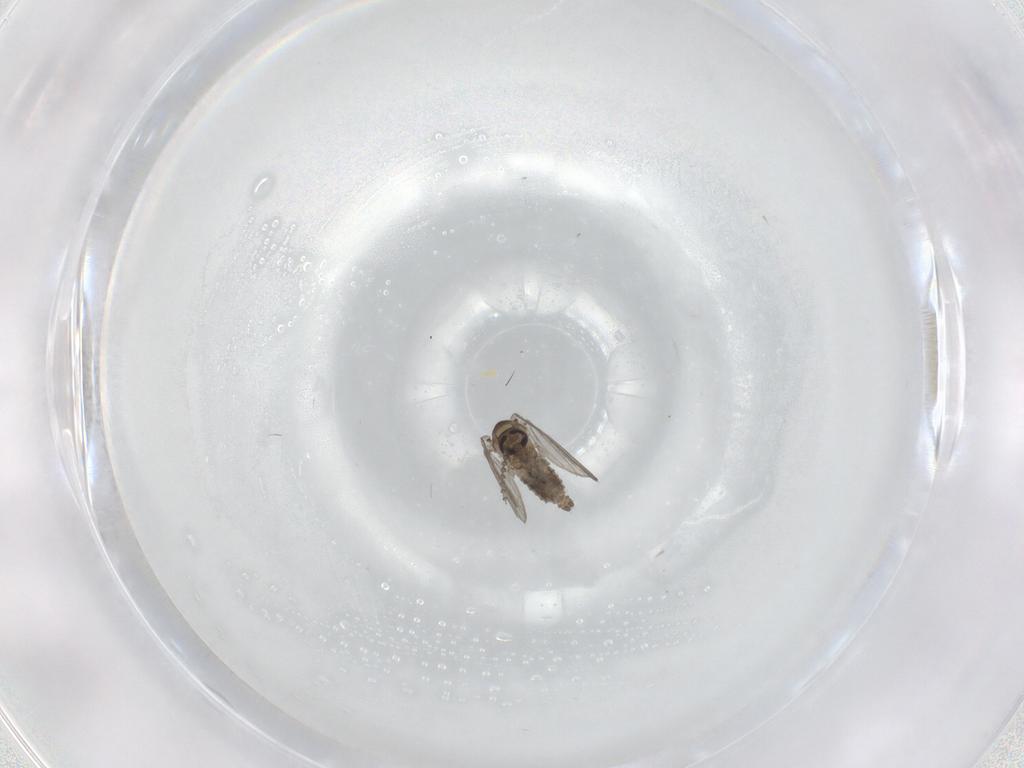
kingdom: Animalia
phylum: Arthropoda
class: Insecta
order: Diptera
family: Psychodidae
